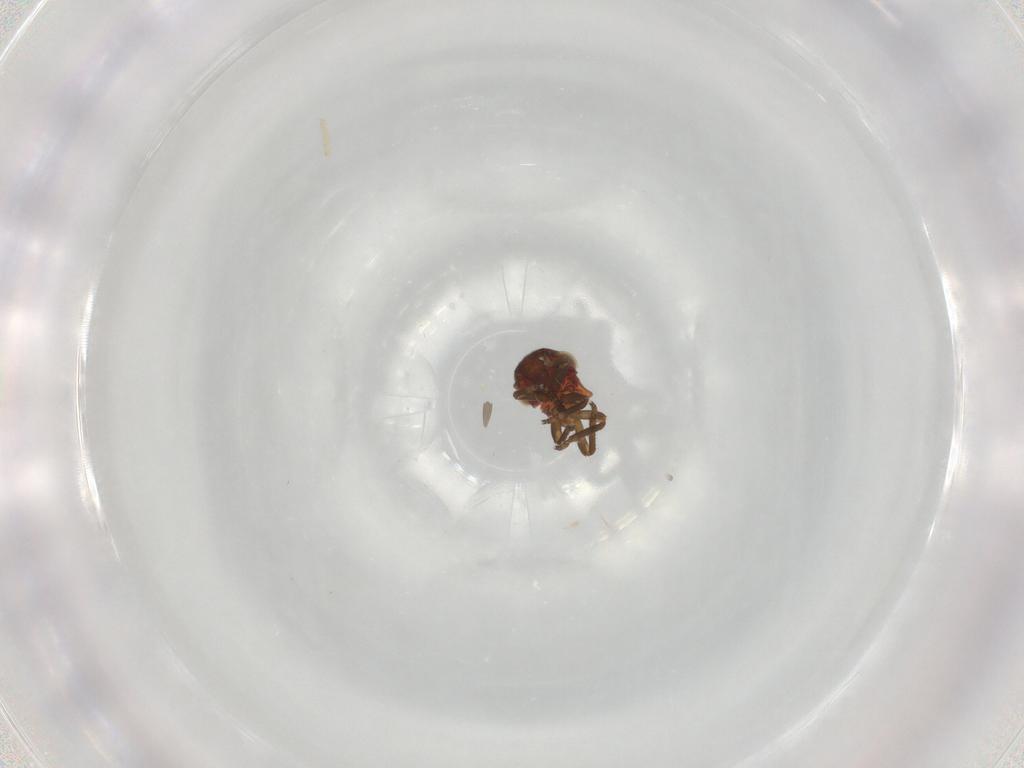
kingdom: Animalia
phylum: Arthropoda
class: Insecta
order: Hemiptera
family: Cicadellidae
